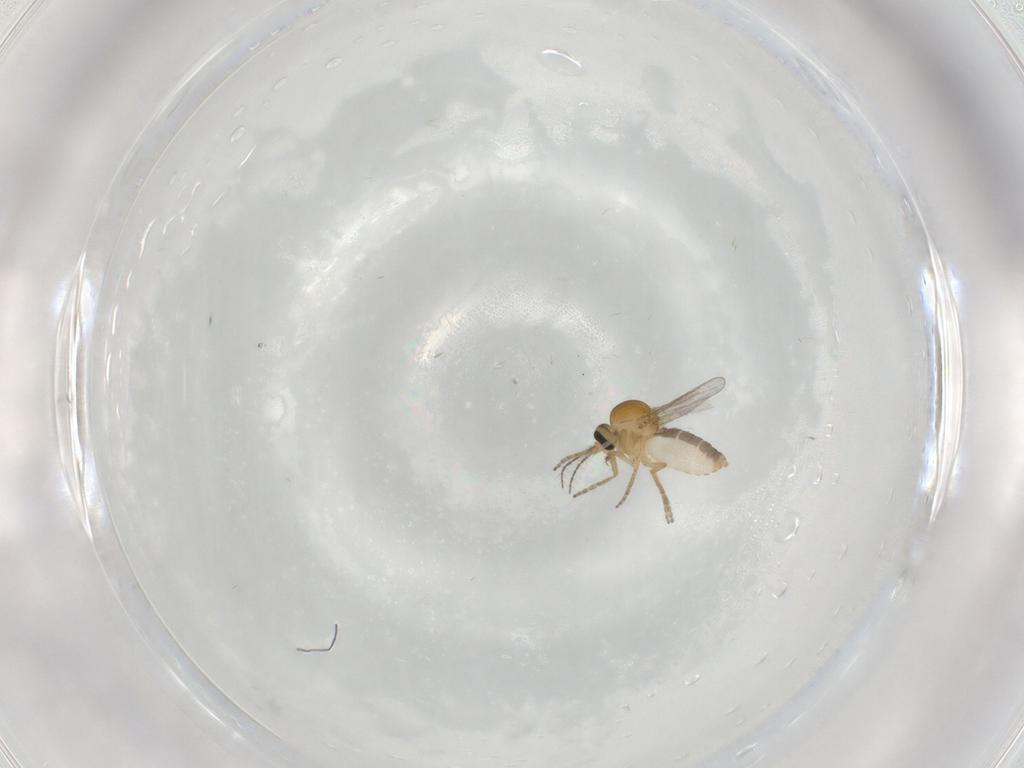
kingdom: Animalia
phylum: Arthropoda
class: Insecta
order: Diptera
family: Ceratopogonidae
